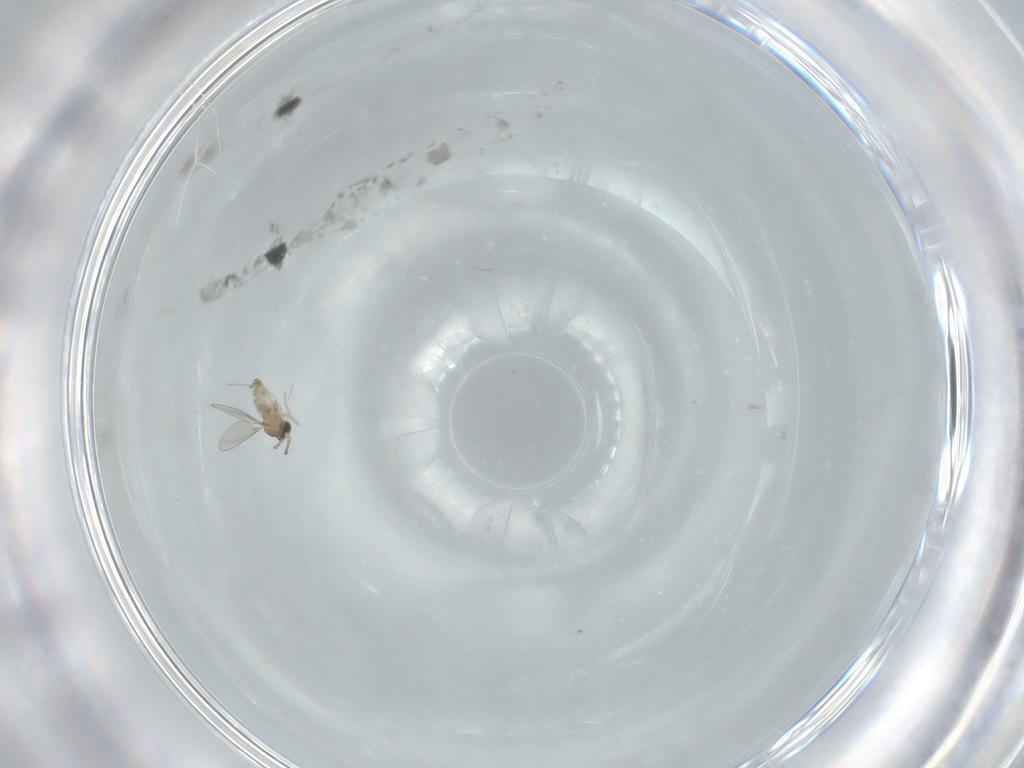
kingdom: Animalia
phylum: Arthropoda
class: Insecta
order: Diptera
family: Cecidomyiidae
